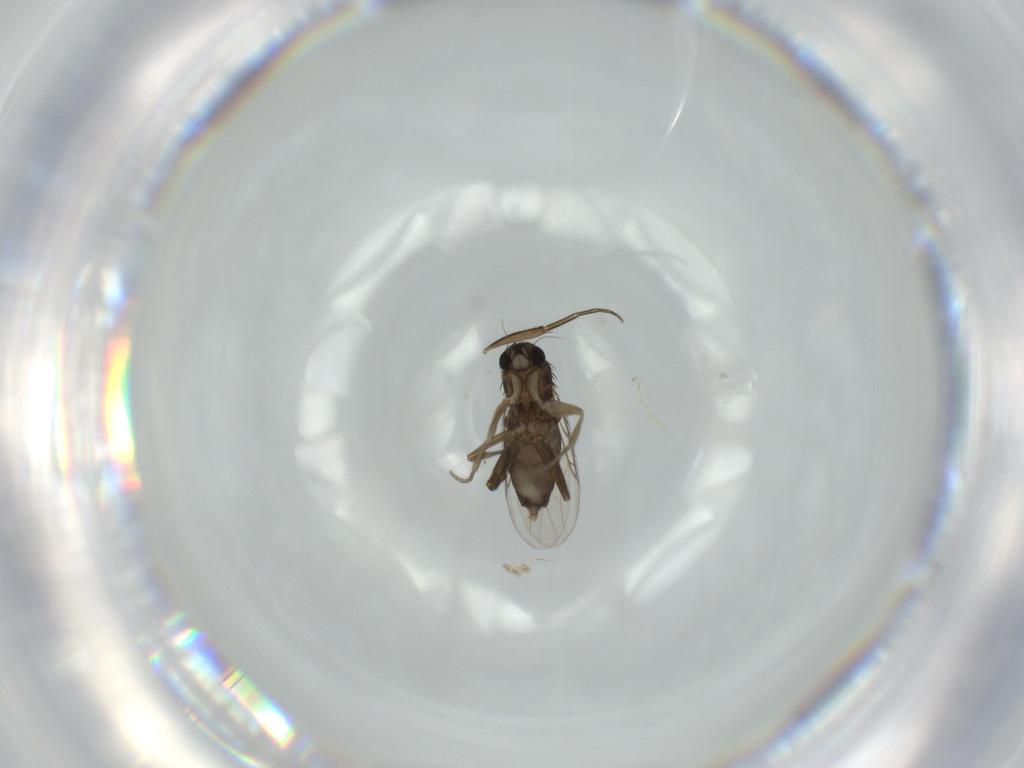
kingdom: Animalia
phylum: Arthropoda
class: Insecta
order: Diptera
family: Phoridae
